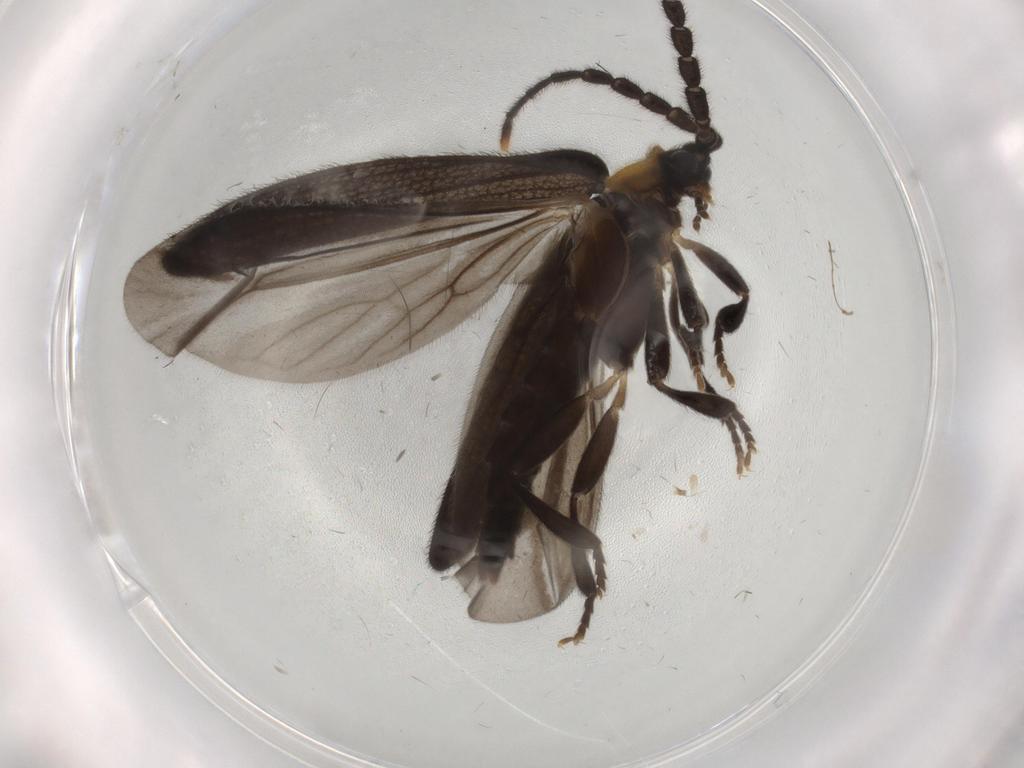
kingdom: Animalia
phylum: Arthropoda
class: Insecta
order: Coleoptera
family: Lycidae
